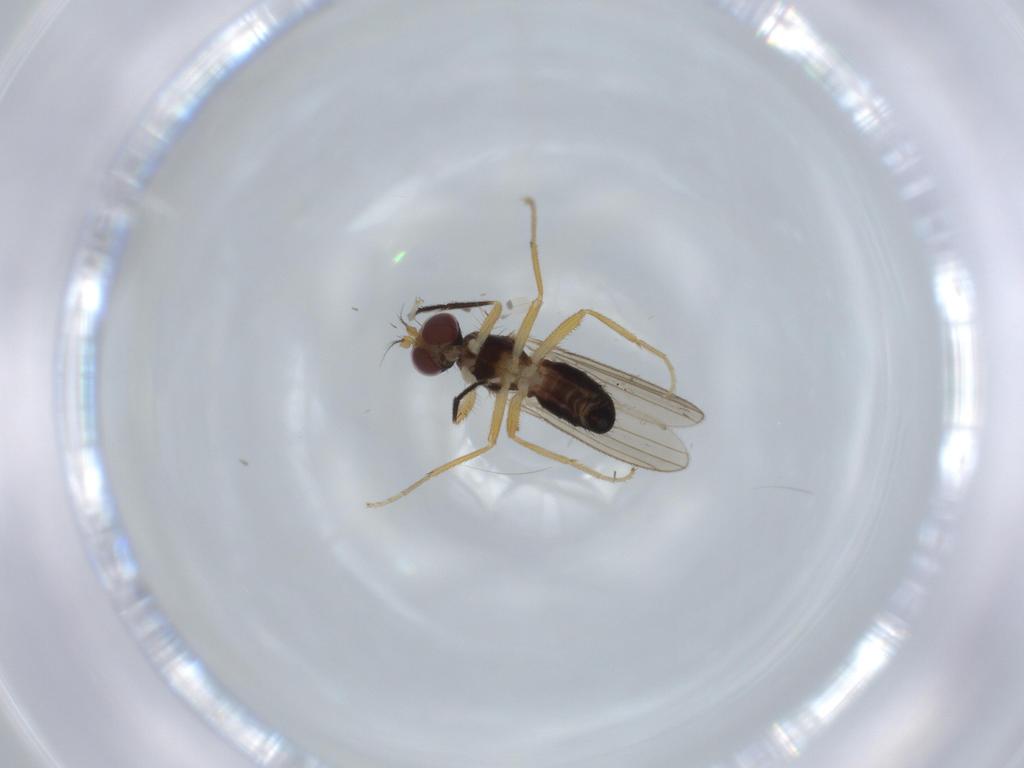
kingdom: Animalia
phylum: Arthropoda
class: Insecta
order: Diptera
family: Anthomyzidae
